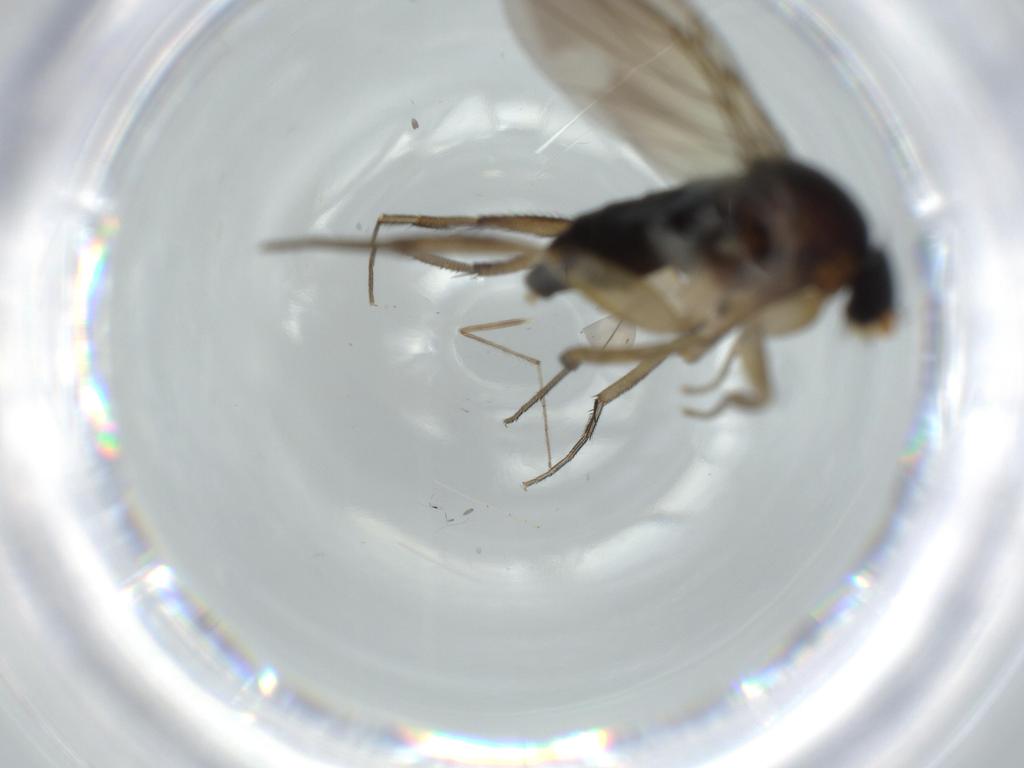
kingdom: Animalia
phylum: Arthropoda
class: Insecta
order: Diptera
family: Phoridae
